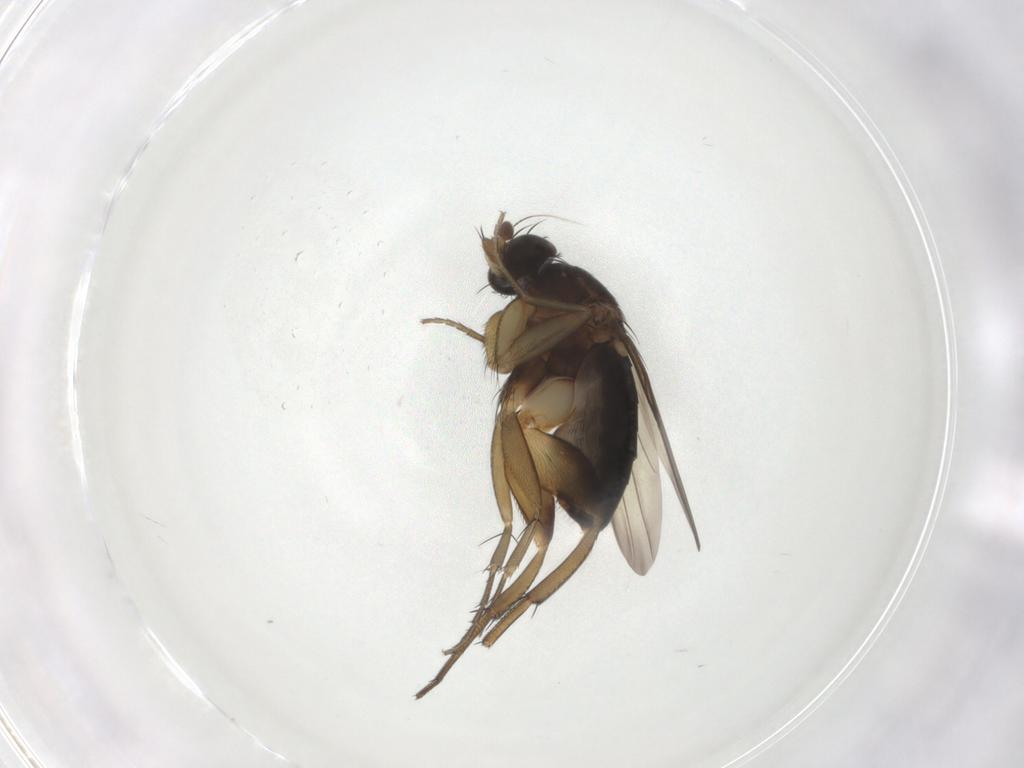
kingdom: Animalia
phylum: Arthropoda
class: Insecta
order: Diptera
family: Phoridae
